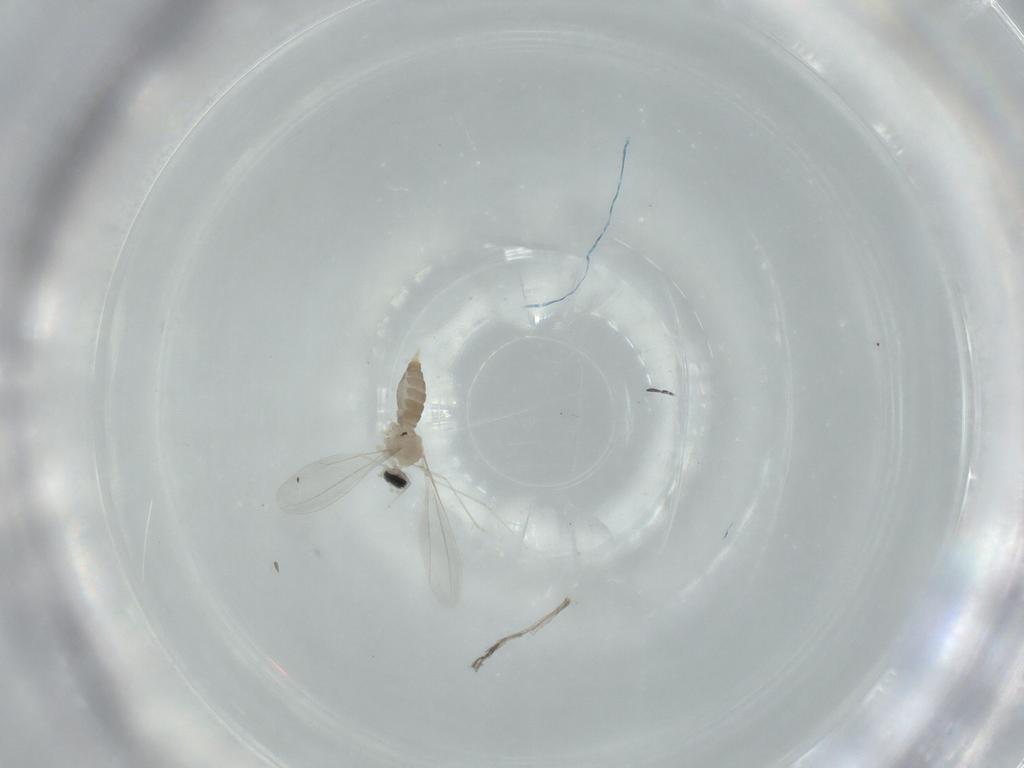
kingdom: Animalia
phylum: Arthropoda
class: Insecta
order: Diptera
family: Cecidomyiidae
